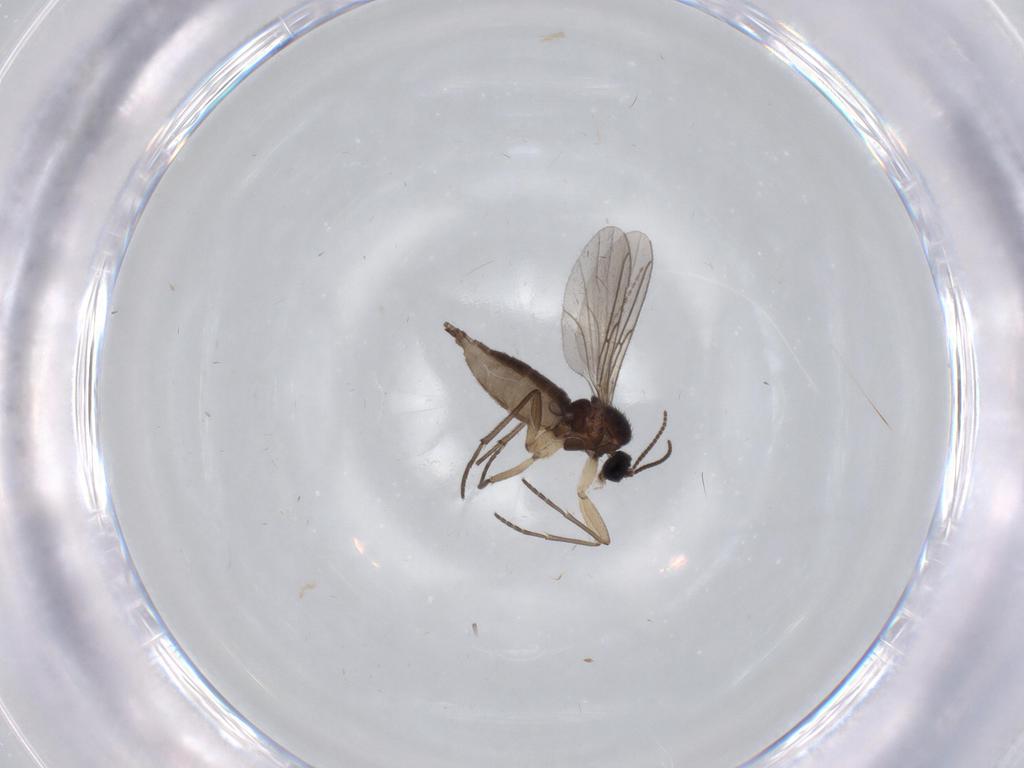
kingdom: Animalia
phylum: Arthropoda
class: Insecta
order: Diptera
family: Sciaridae
